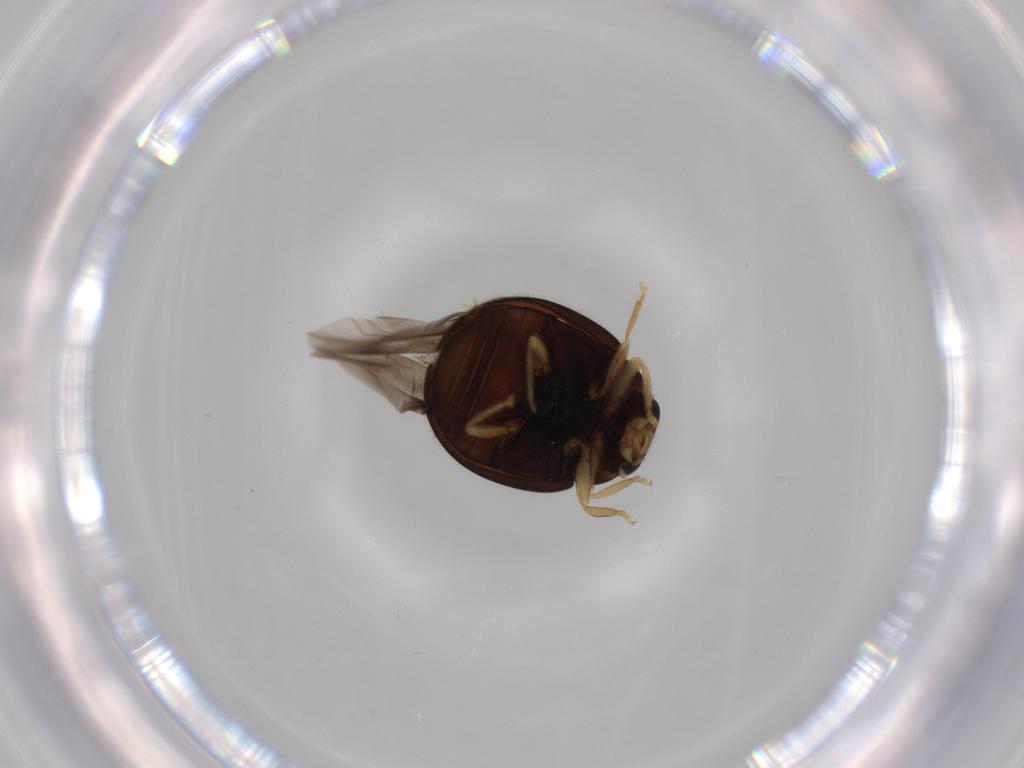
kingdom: Animalia
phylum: Arthropoda
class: Insecta
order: Coleoptera
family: Coccinellidae
